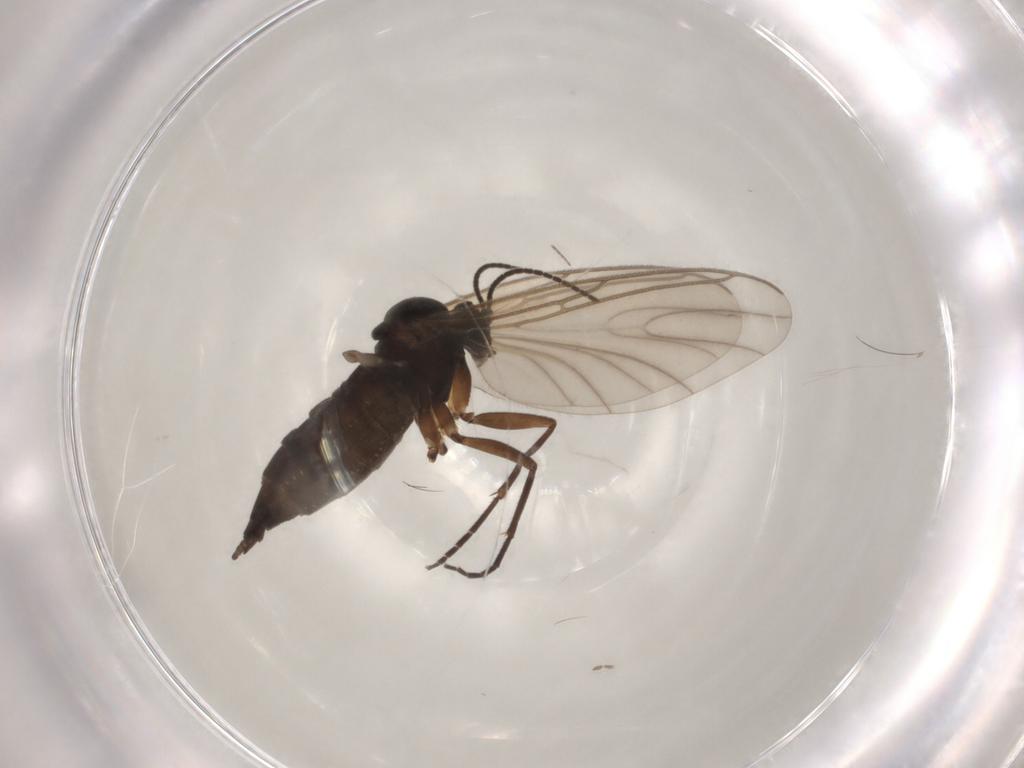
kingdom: Animalia
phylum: Arthropoda
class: Insecta
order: Diptera
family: Sciaridae
